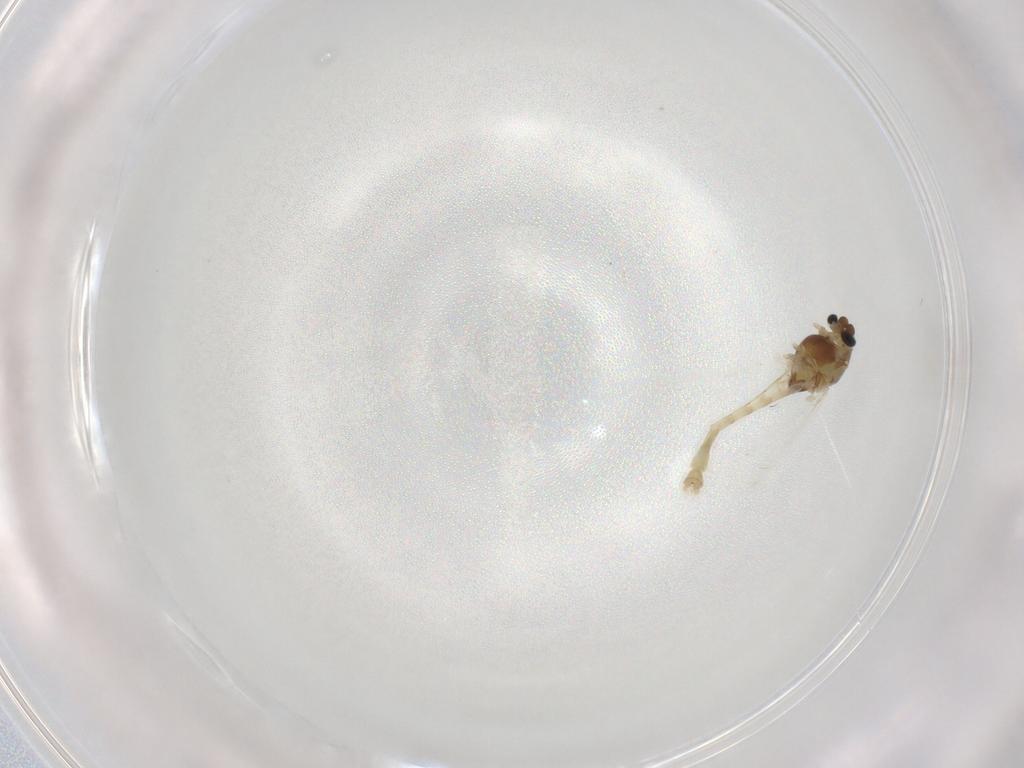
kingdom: Animalia
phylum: Arthropoda
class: Insecta
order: Diptera
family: Chironomidae
